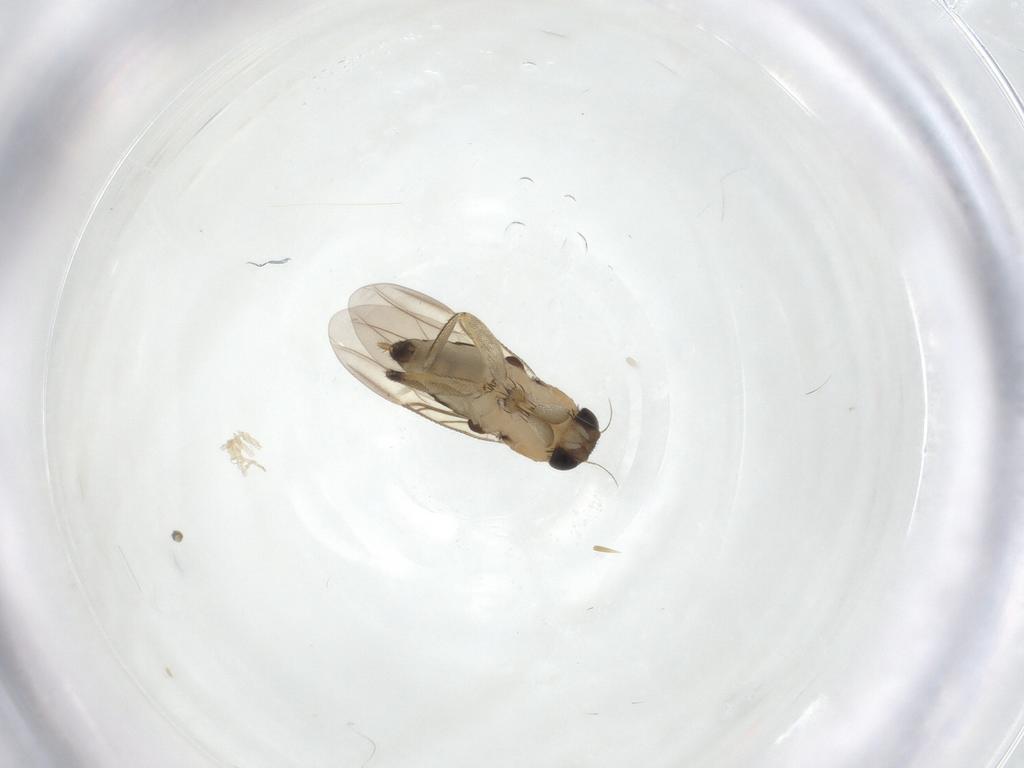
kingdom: Animalia
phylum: Arthropoda
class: Insecta
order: Diptera
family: Phoridae
